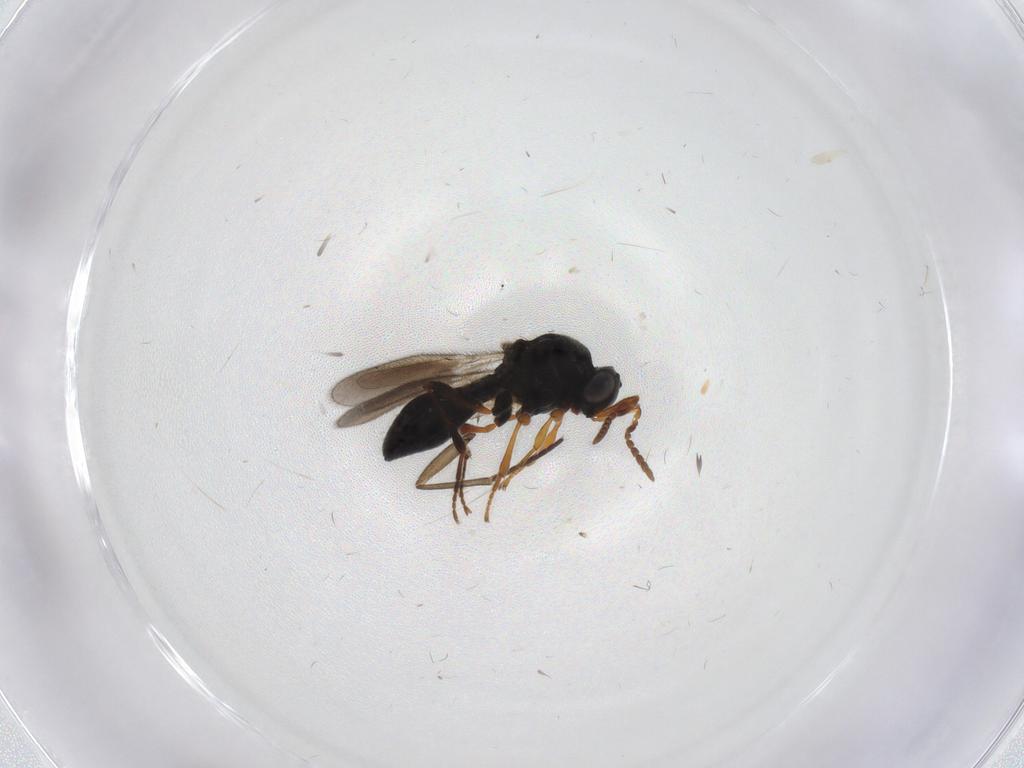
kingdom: Animalia
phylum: Arthropoda
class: Insecta
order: Hymenoptera
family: Platygastridae
